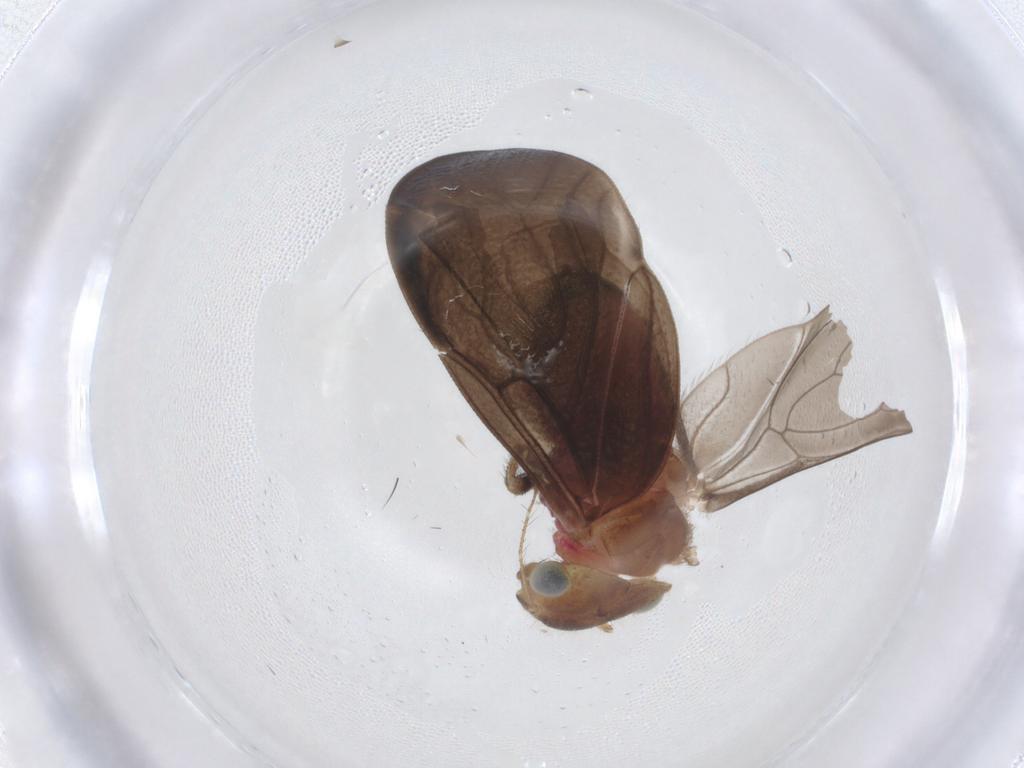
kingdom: Animalia
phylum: Arthropoda
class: Insecta
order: Psocodea
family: Pseudocaeciliidae
